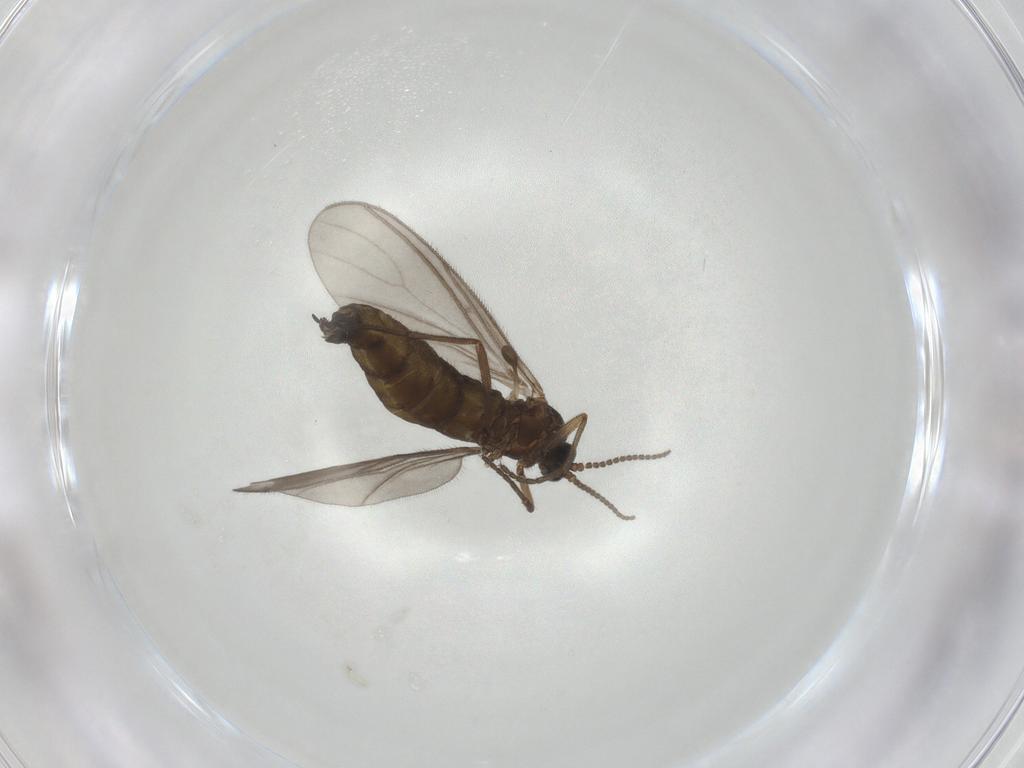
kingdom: Animalia
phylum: Arthropoda
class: Insecta
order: Diptera
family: Sciaridae
